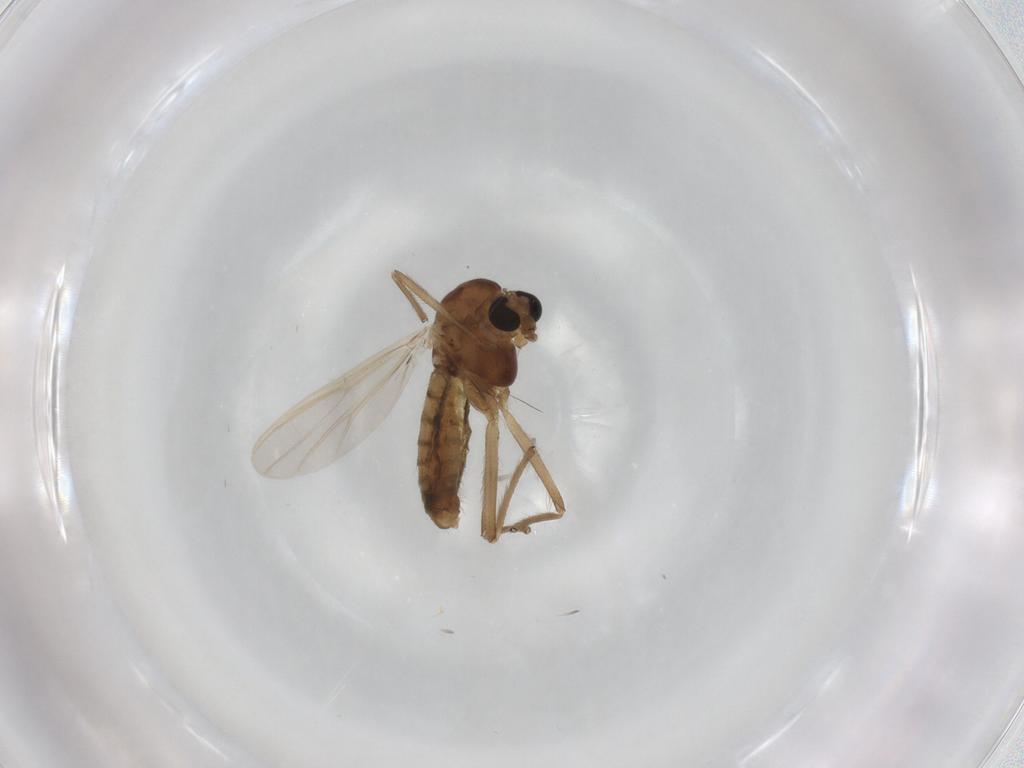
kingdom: Animalia
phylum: Arthropoda
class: Insecta
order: Diptera
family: Chironomidae
